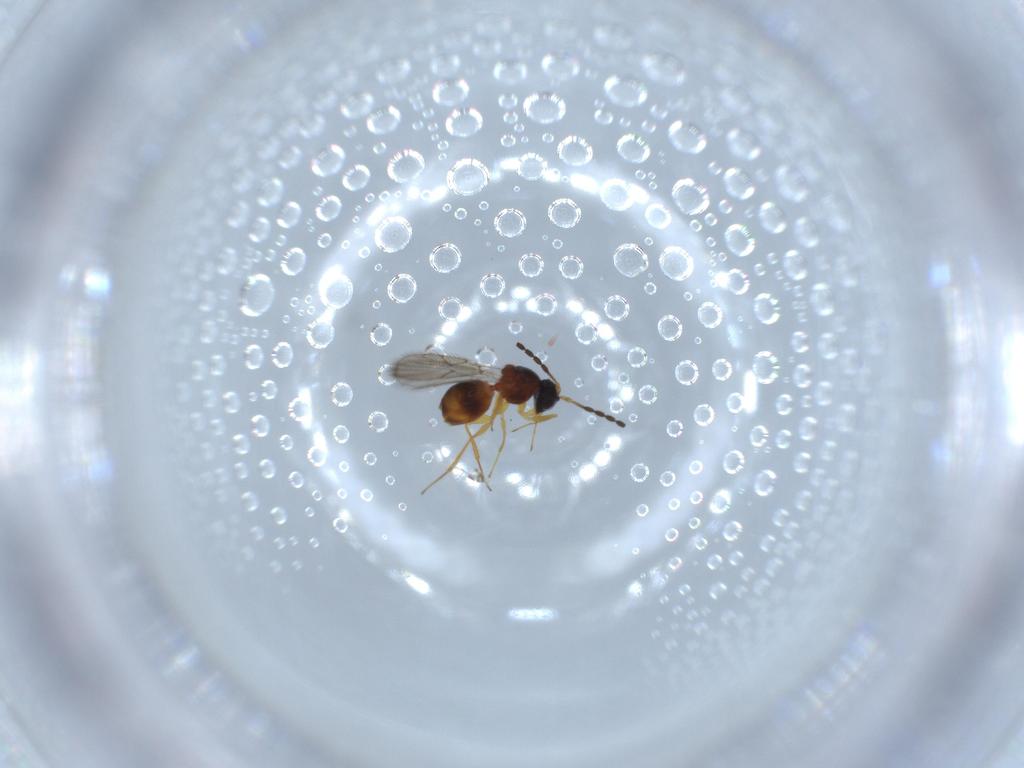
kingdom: Animalia
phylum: Arthropoda
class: Insecta
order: Hymenoptera
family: Figitidae
